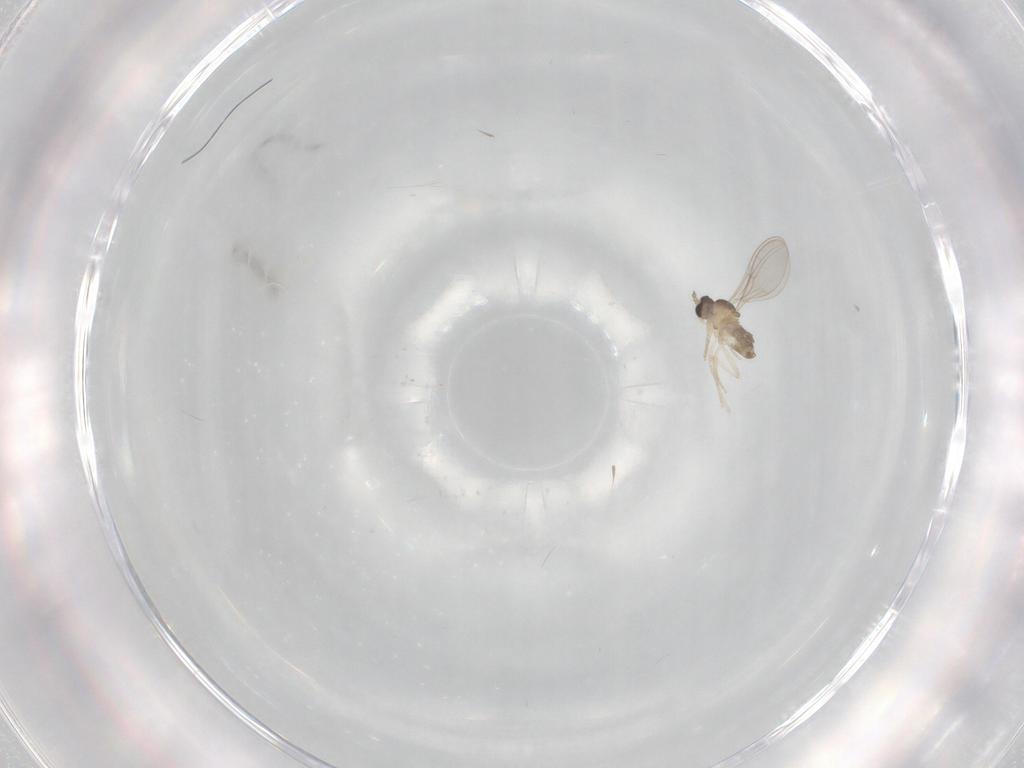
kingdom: Animalia
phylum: Arthropoda
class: Insecta
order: Diptera
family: Cecidomyiidae
